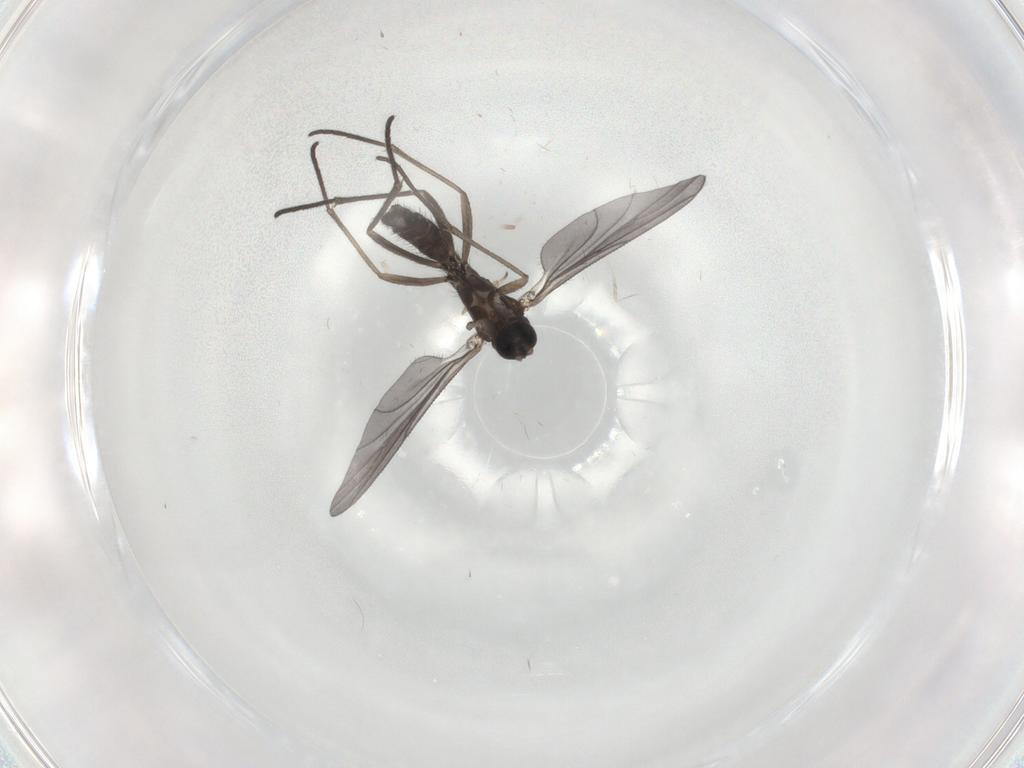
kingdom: Animalia
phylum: Arthropoda
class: Insecta
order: Diptera
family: Sciaridae
